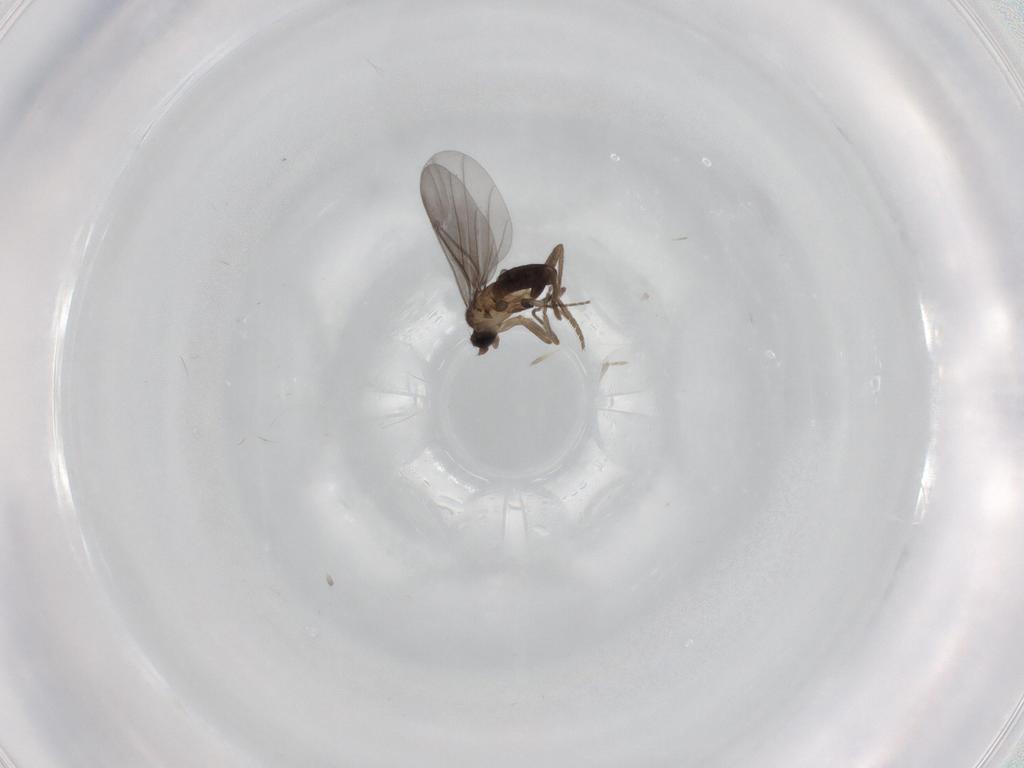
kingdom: Animalia
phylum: Arthropoda
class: Insecta
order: Diptera
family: Phoridae
